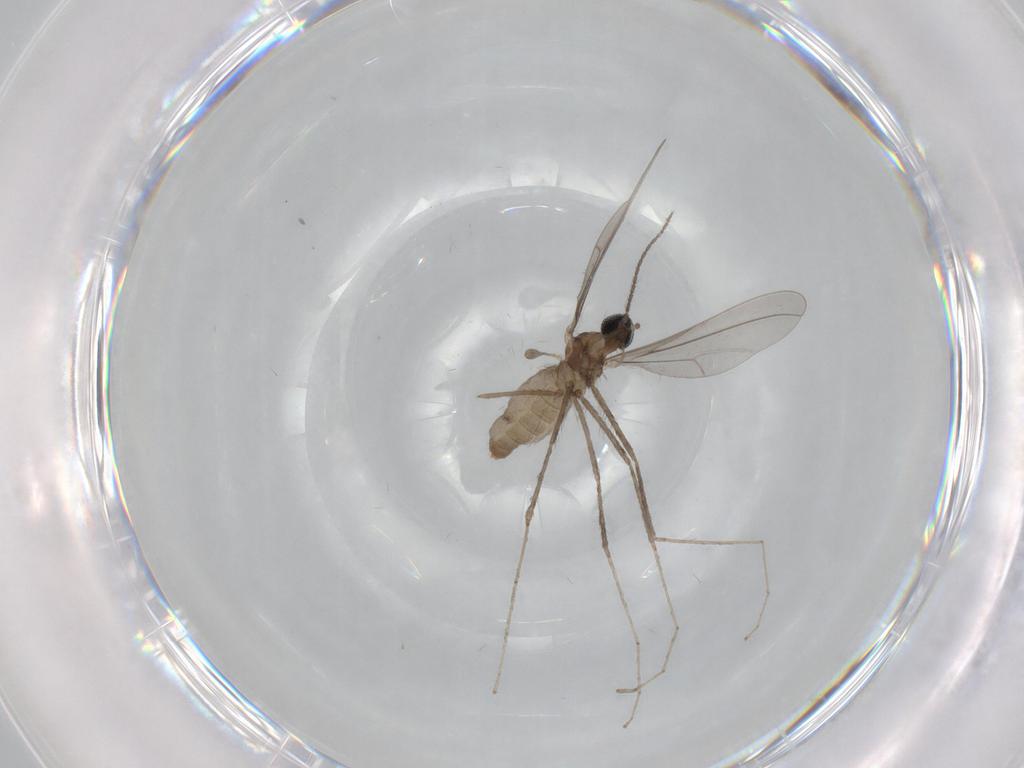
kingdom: Animalia
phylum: Arthropoda
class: Insecta
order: Diptera
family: Cecidomyiidae
